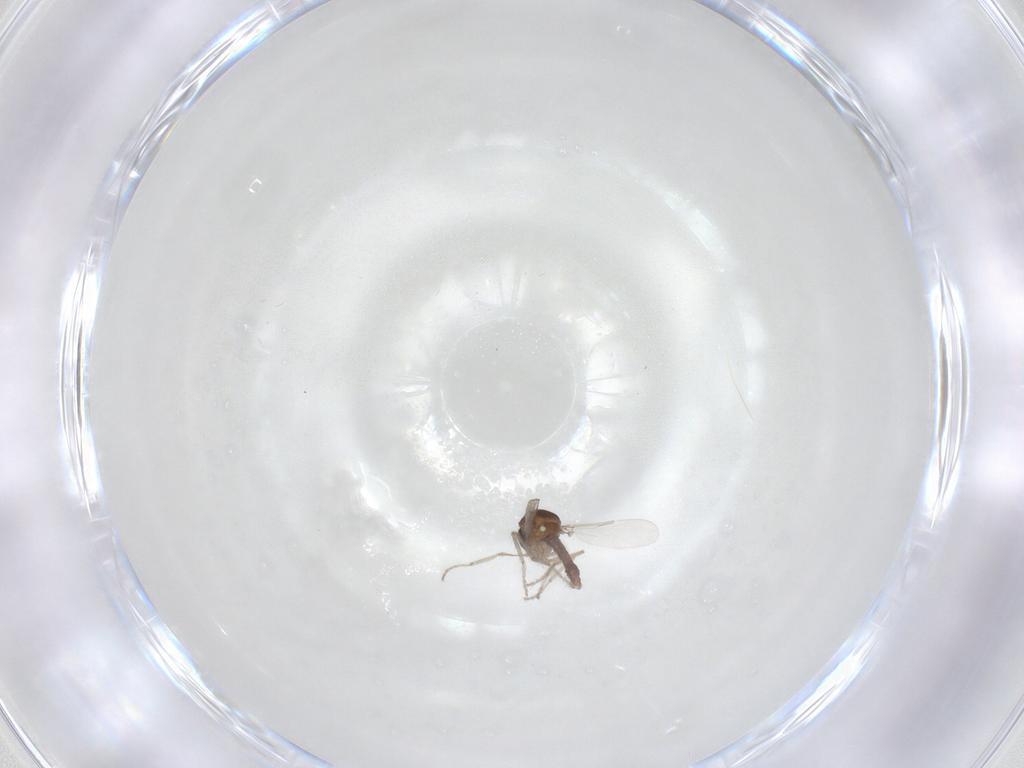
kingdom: Animalia
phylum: Arthropoda
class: Insecta
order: Diptera
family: Ceratopogonidae
